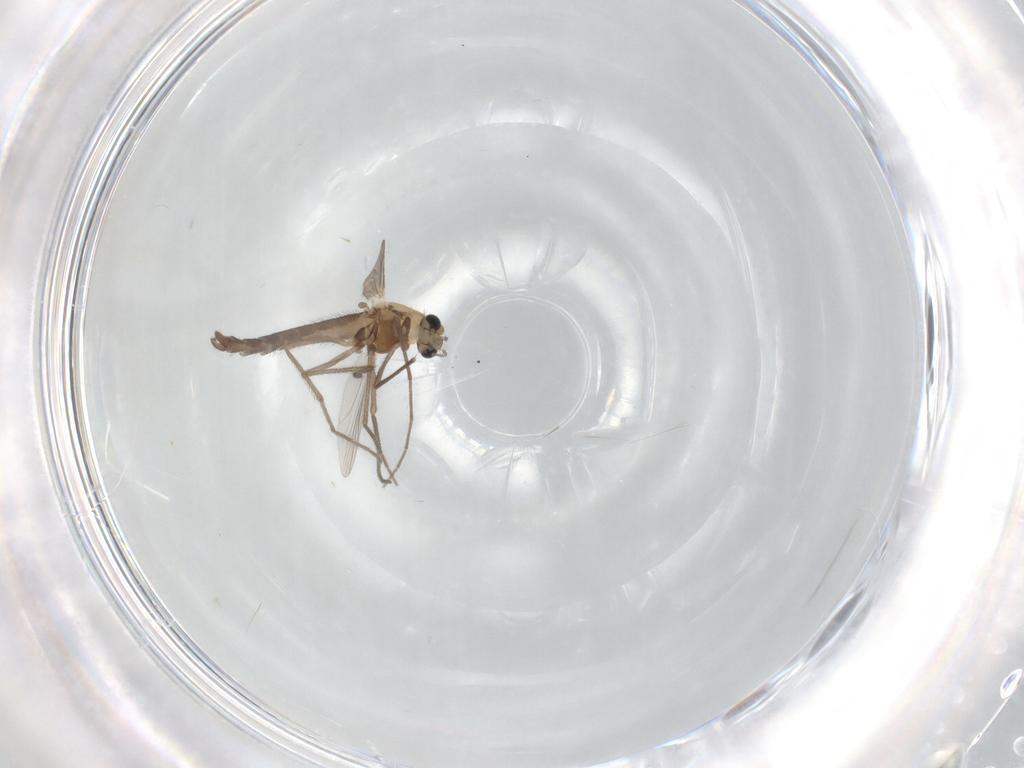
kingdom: Animalia
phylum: Arthropoda
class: Insecta
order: Diptera
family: Chironomidae
